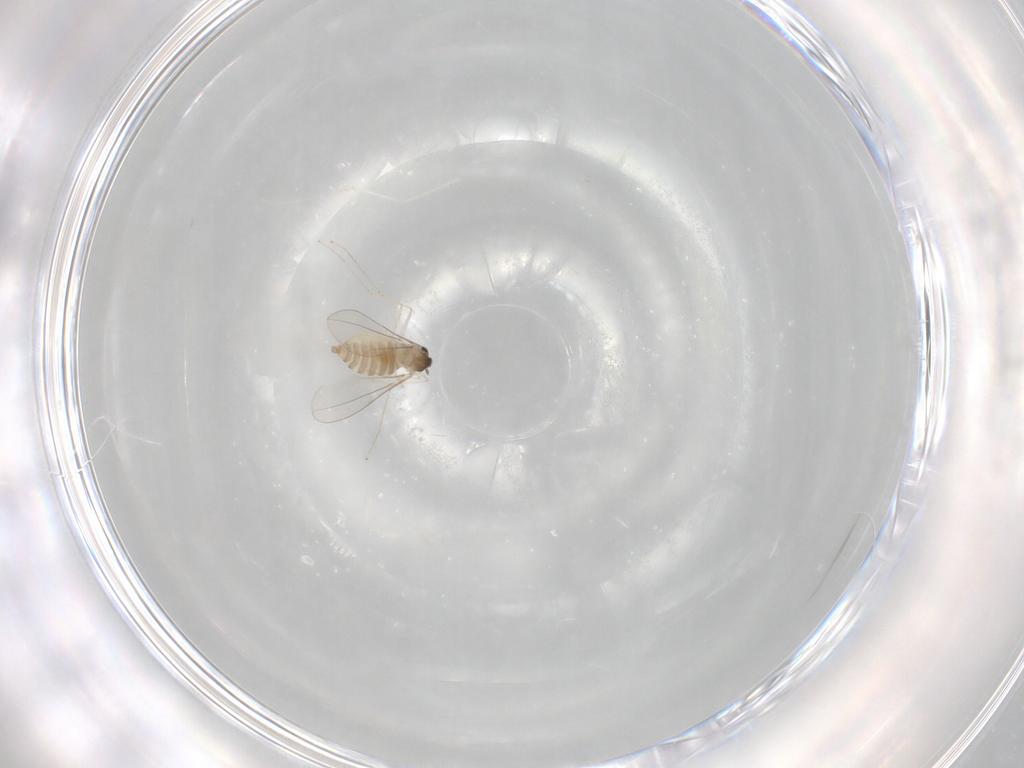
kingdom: Animalia
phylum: Arthropoda
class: Insecta
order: Diptera
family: Cecidomyiidae
